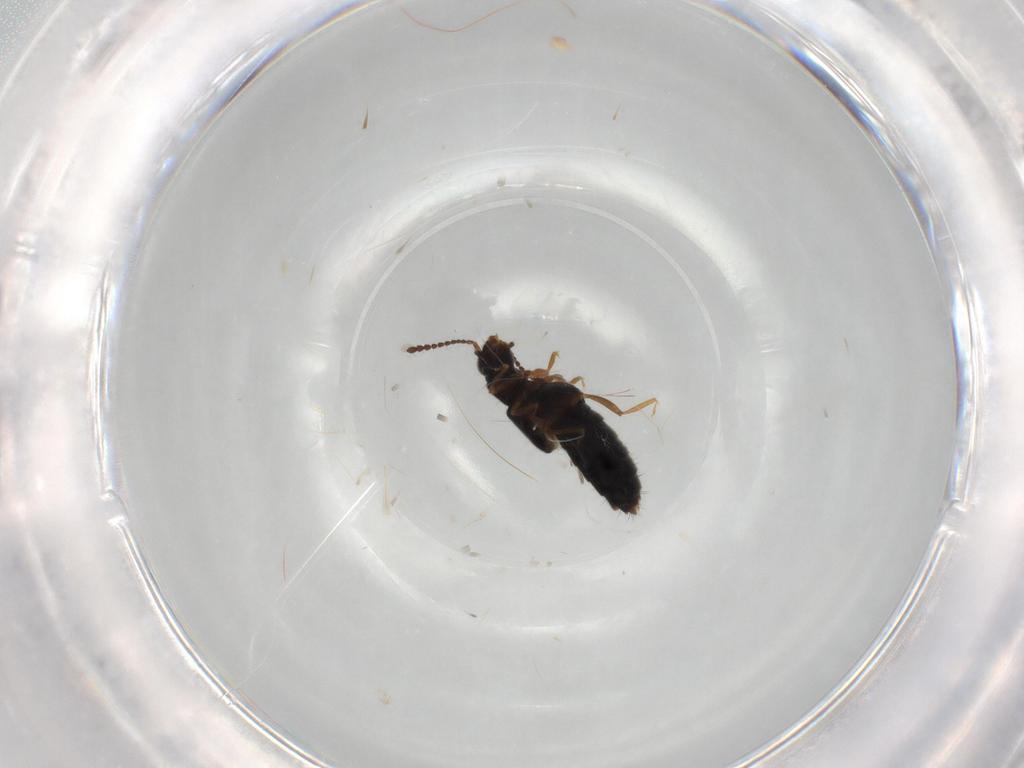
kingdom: Animalia
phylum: Arthropoda
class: Insecta
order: Coleoptera
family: Staphylinidae
